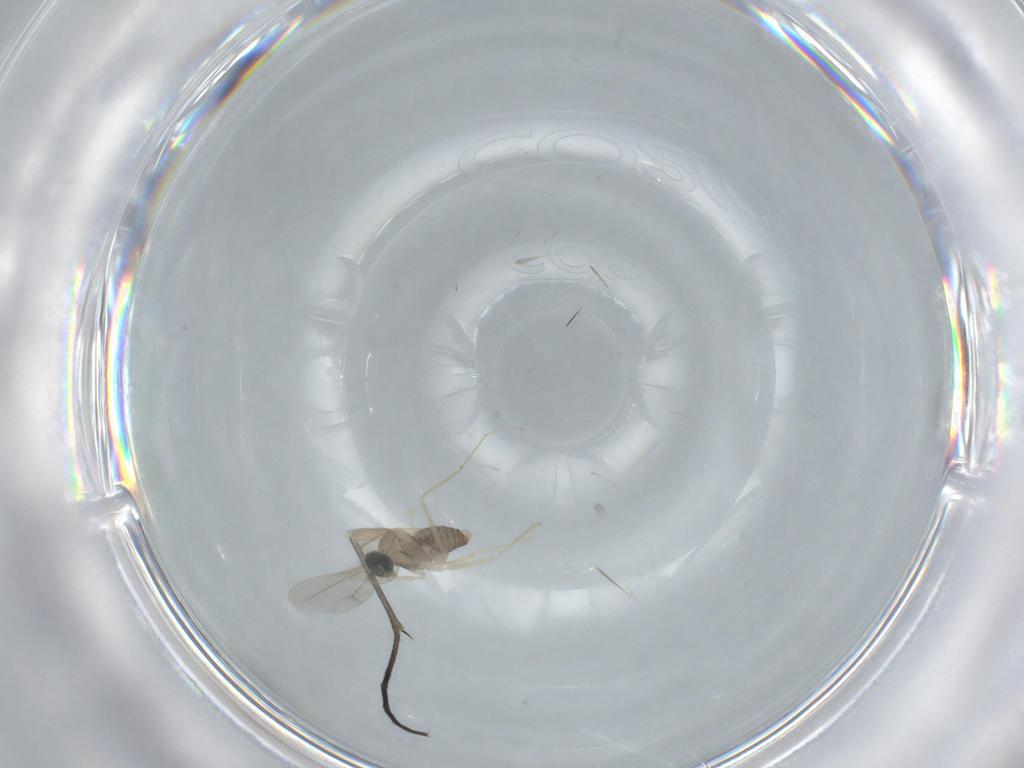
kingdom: Animalia
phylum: Arthropoda
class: Insecta
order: Diptera
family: Cecidomyiidae
